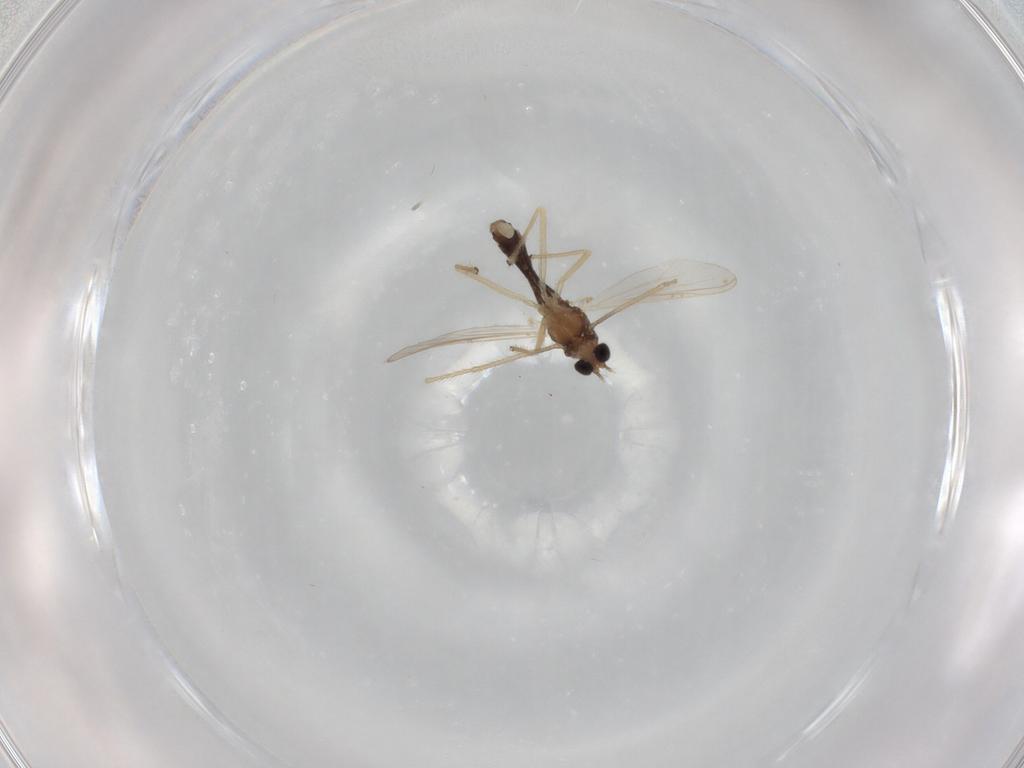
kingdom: Animalia
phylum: Arthropoda
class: Insecta
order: Diptera
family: Chironomidae
